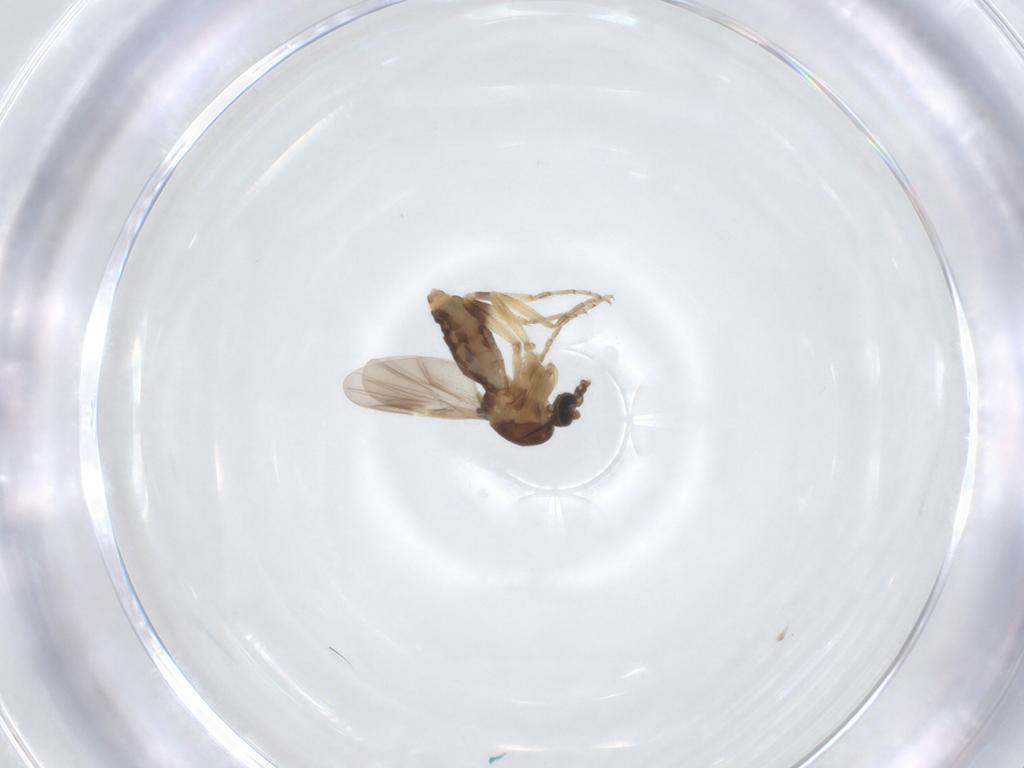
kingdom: Animalia
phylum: Arthropoda
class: Insecta
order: Diptera
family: Ceratopogonidae
